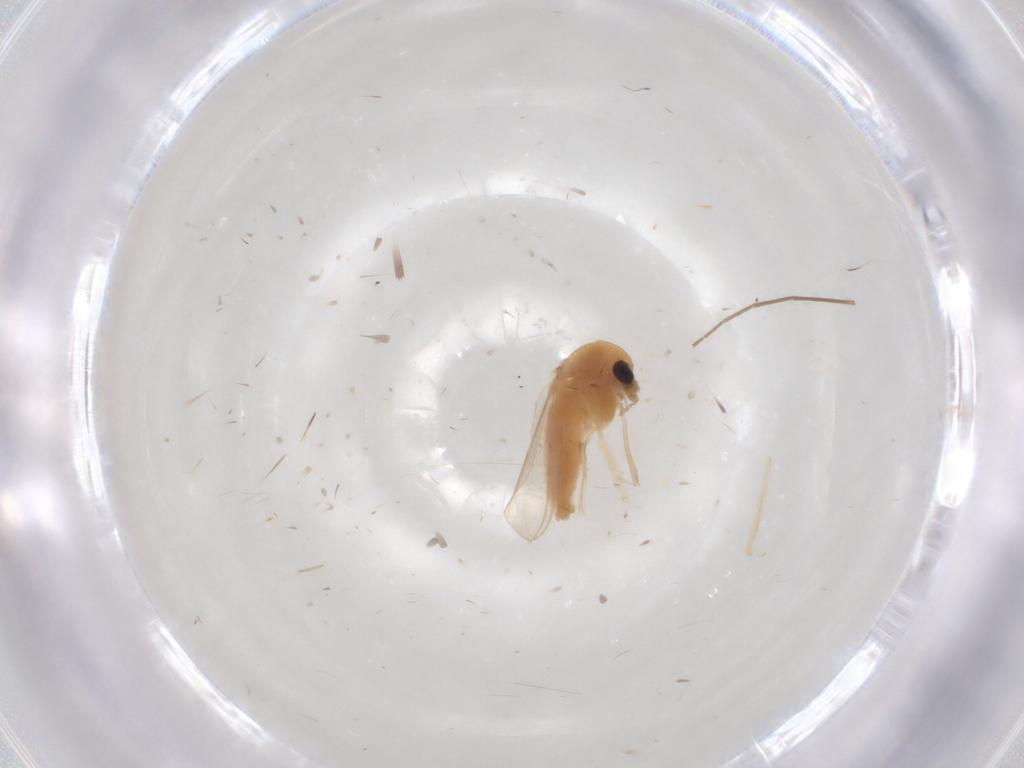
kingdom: Animalia
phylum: Arthropoda
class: Insecta
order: Diptera
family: Chironomidae
